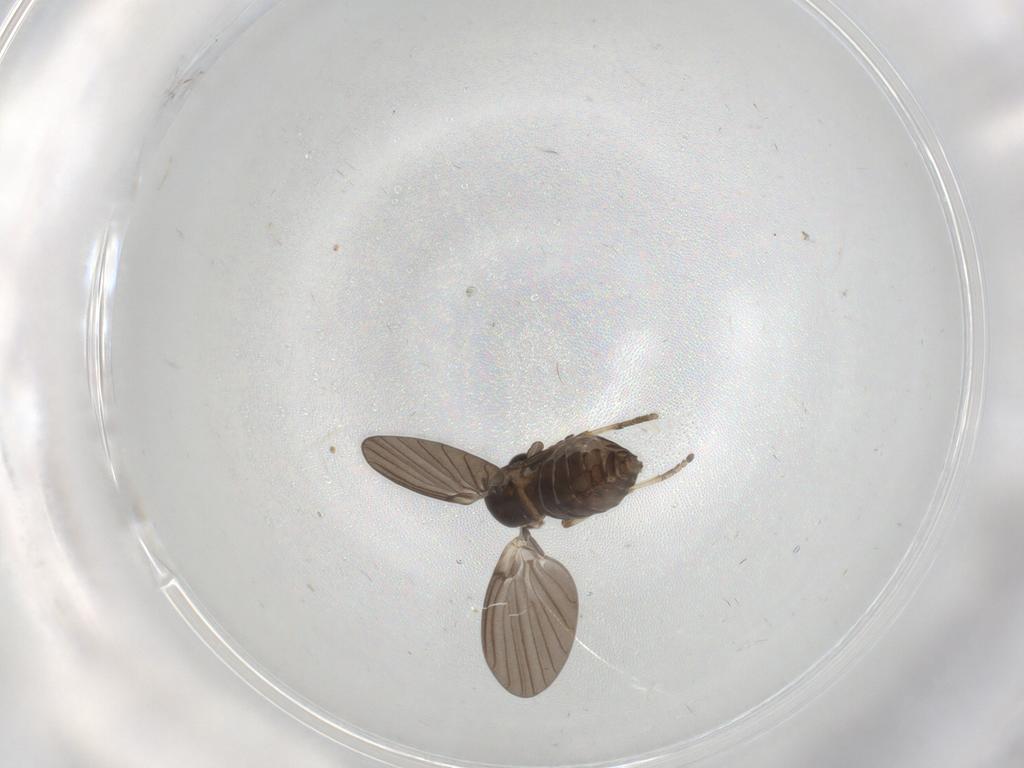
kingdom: Animalia
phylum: Arthropoda
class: Insecta
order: Diptera
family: Psychodidae
